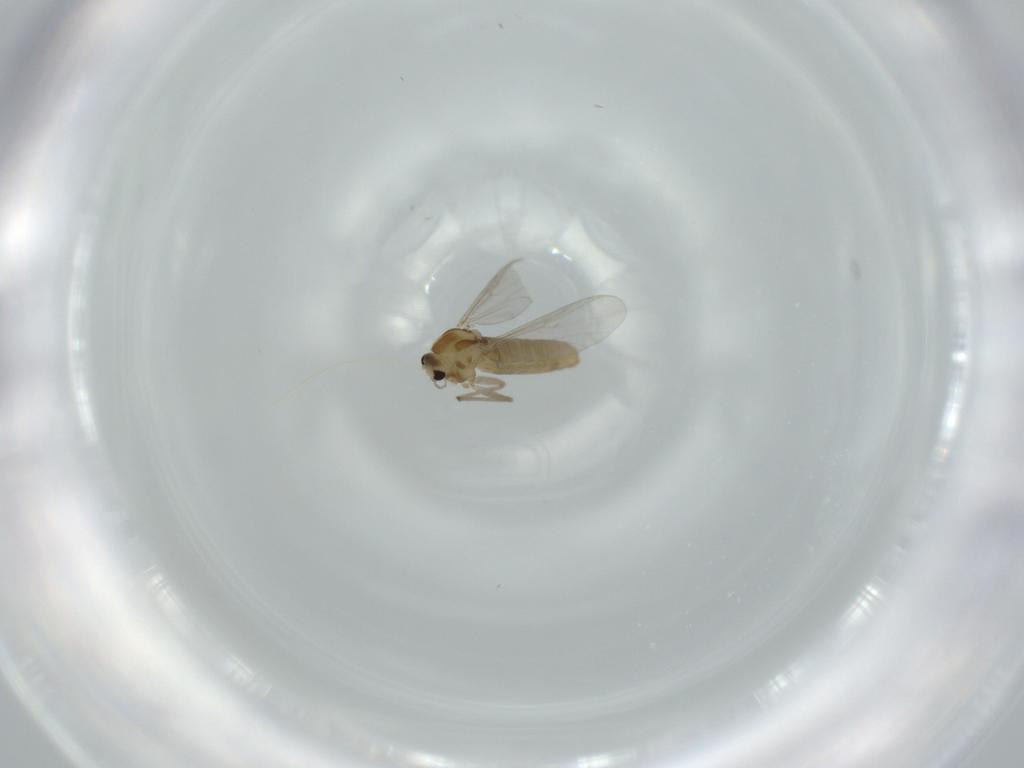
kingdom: Animalia
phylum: Arthropoda
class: Insecta
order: Diptera
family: Chironomidae
